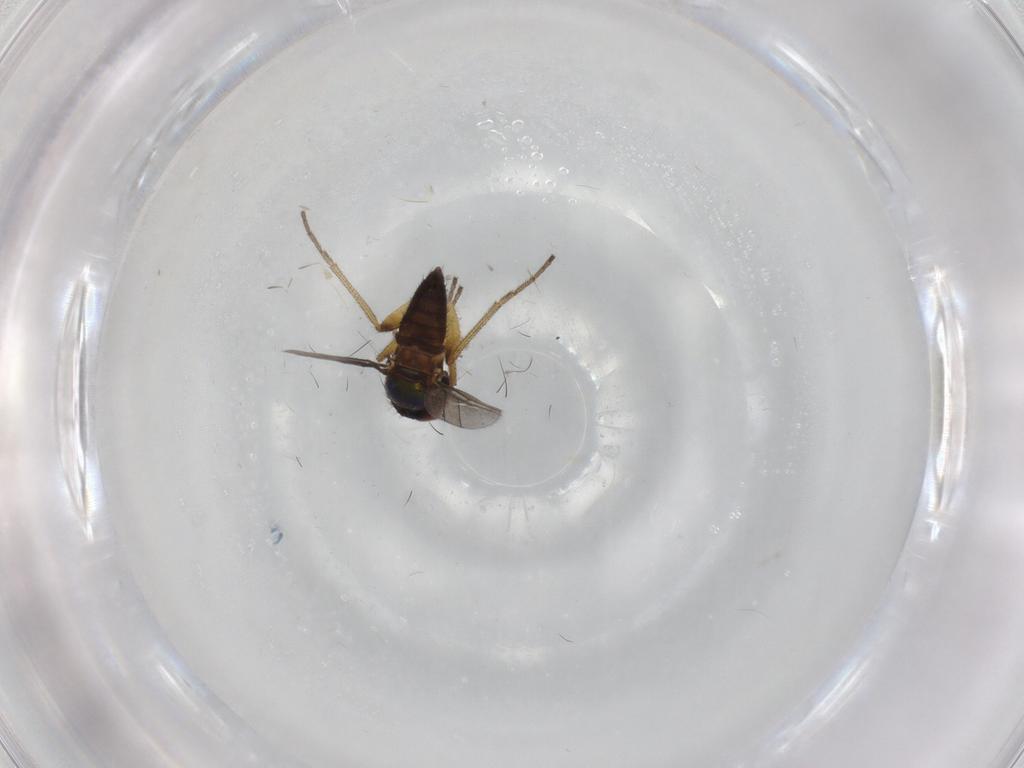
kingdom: Animalia
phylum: Arthropoda
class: Insecta
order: Diptera
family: Dolichopodidae
